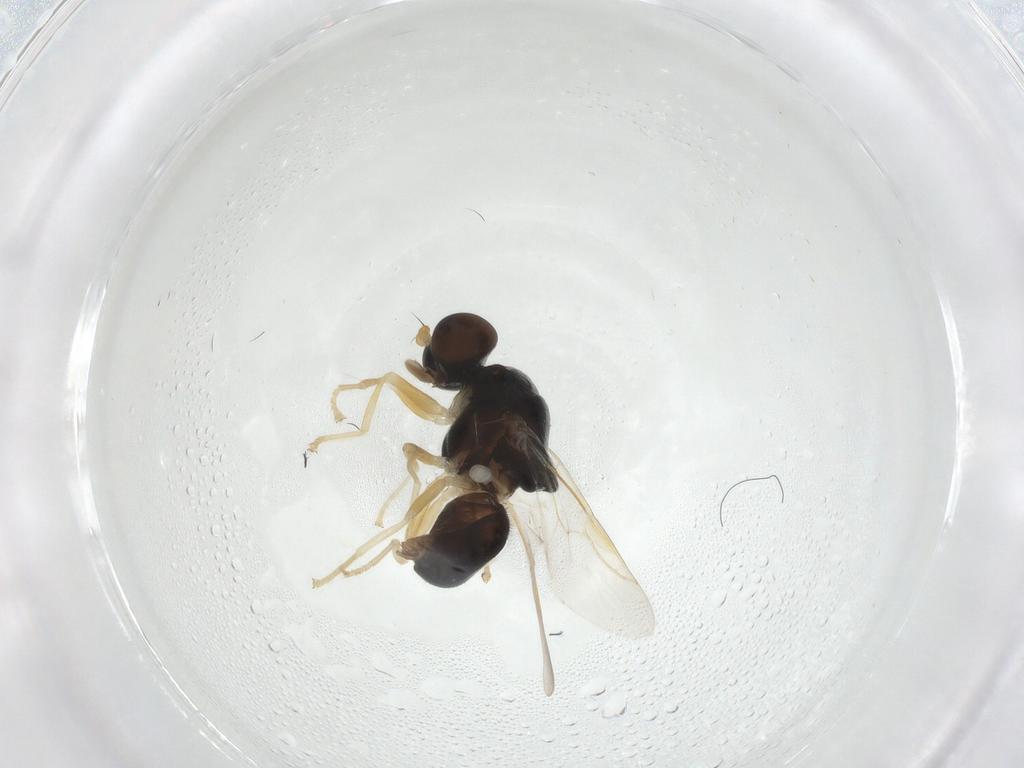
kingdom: Animalia
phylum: Arthropoda
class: Insecta
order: Diptera
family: Stratiomyidae
